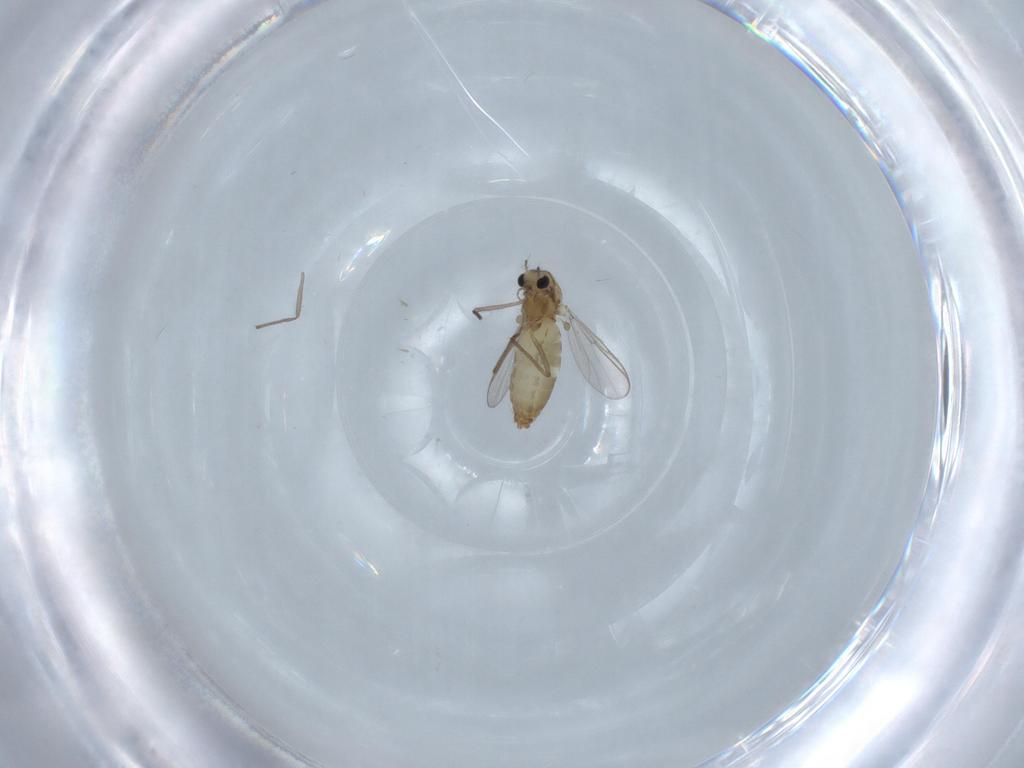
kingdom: Animalia
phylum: Arthropoda
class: Insecta
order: Diptera
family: Chironomidae
